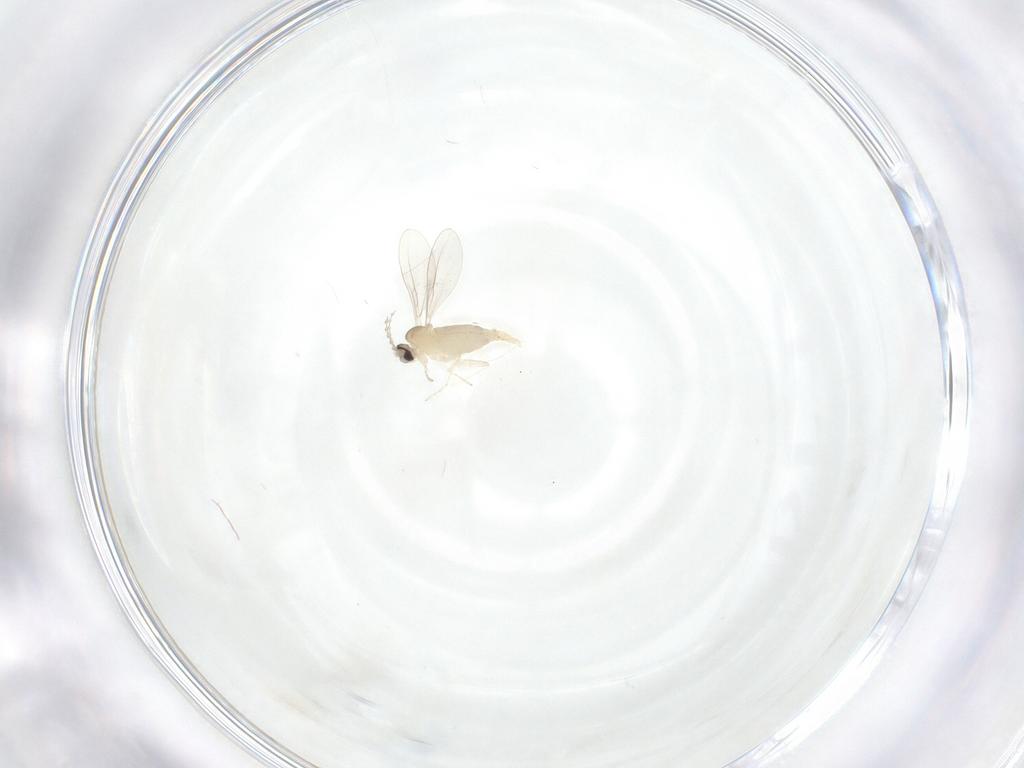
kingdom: Animalia
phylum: Arthropoda
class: Insecta
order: Diptera
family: Cecidomyiidae
